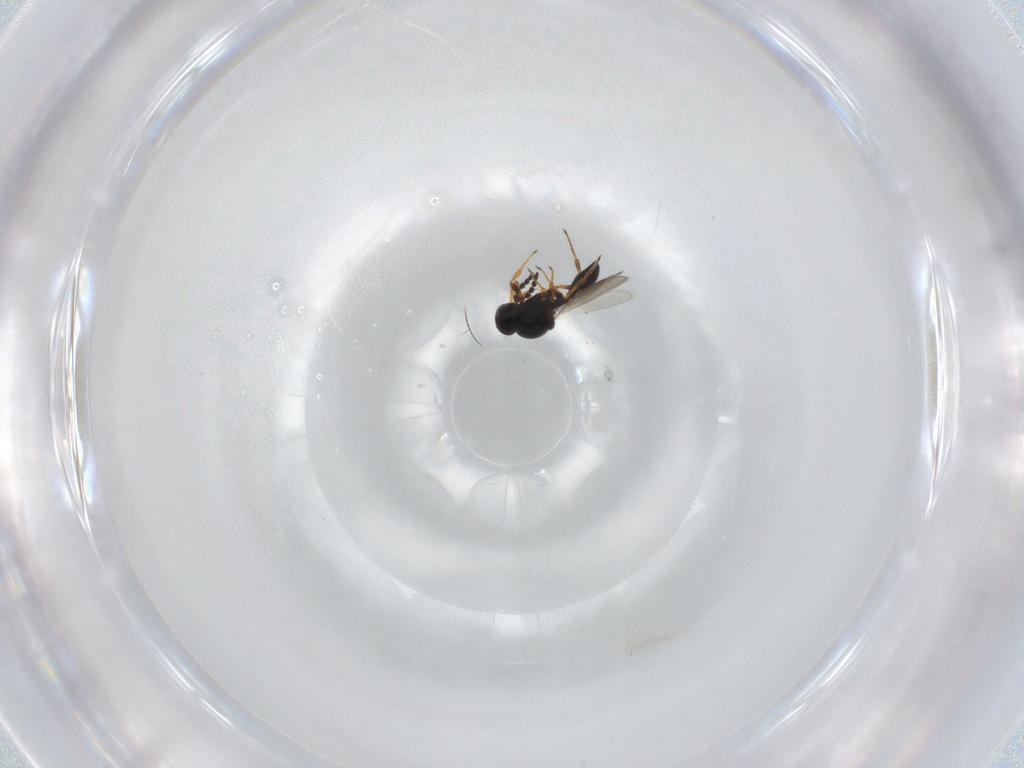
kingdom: Animalia
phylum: Arthropoda
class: Insecta
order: Hymenoptera
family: Platygastridae
